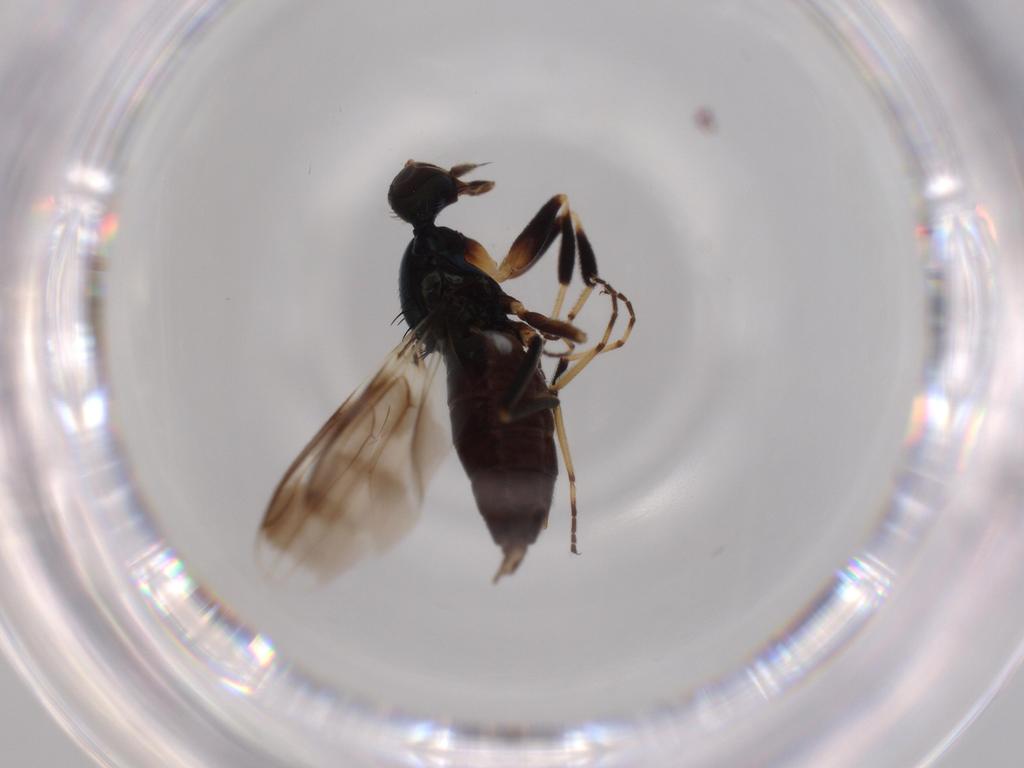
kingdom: Animalia
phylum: Arthropoda
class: Insecta
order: Diptera
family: Hybotidae
